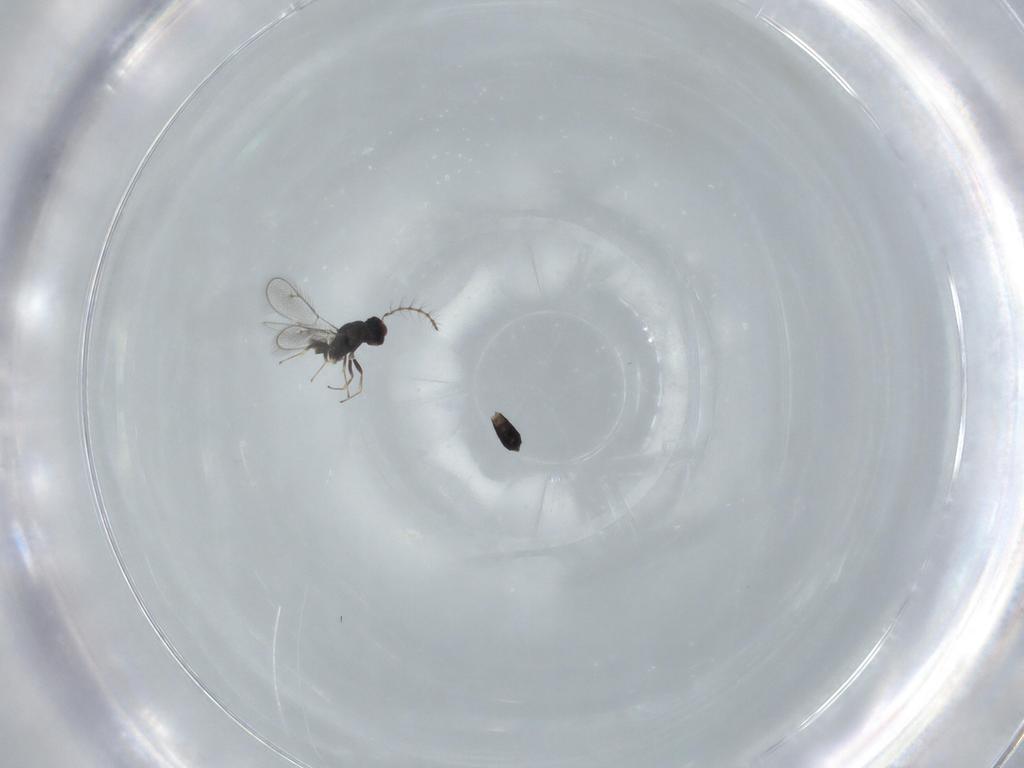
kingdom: Animalia
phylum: Arthropoda
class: Insecta
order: Hymenoptera
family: Pteromalidae
